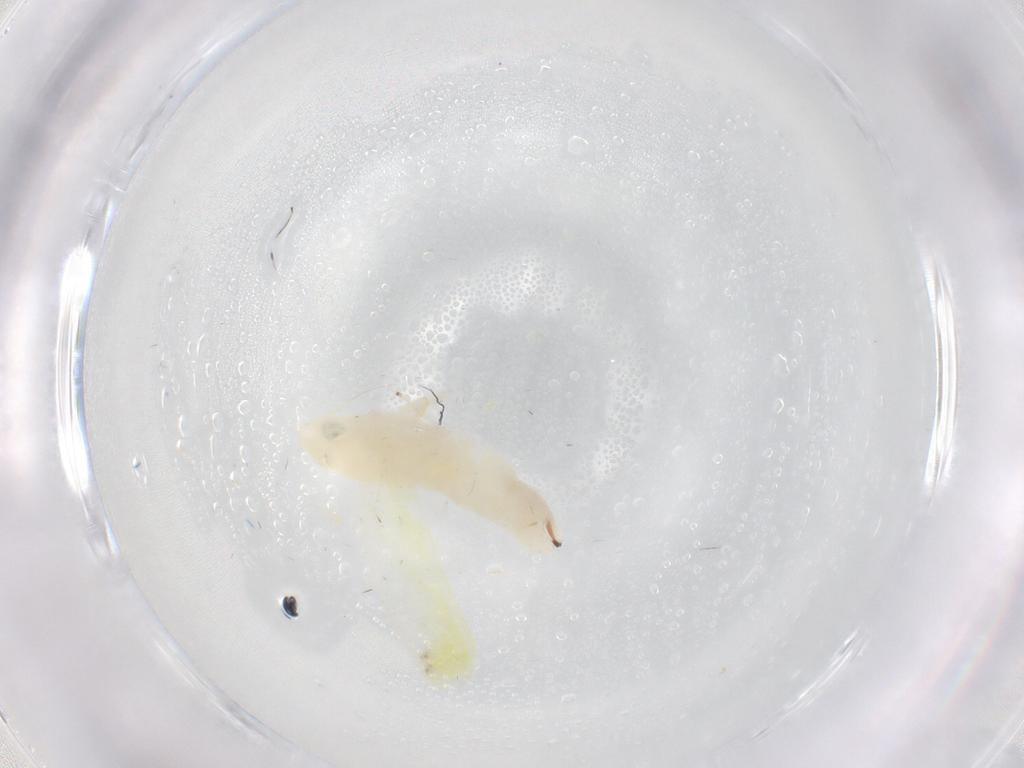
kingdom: Animalia
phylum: Arthropoda
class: Insecta
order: Hemiptera
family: Cicadellidae
